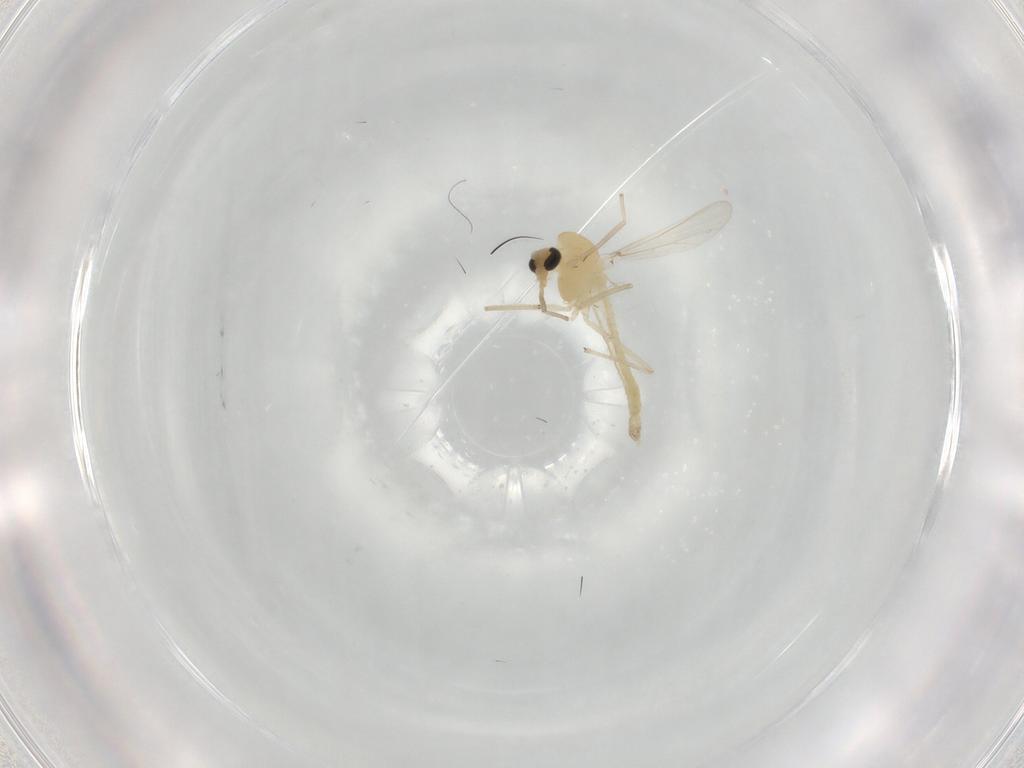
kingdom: Animalia
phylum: Arthropoda
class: Insecta
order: Diptera
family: Chironomidae
